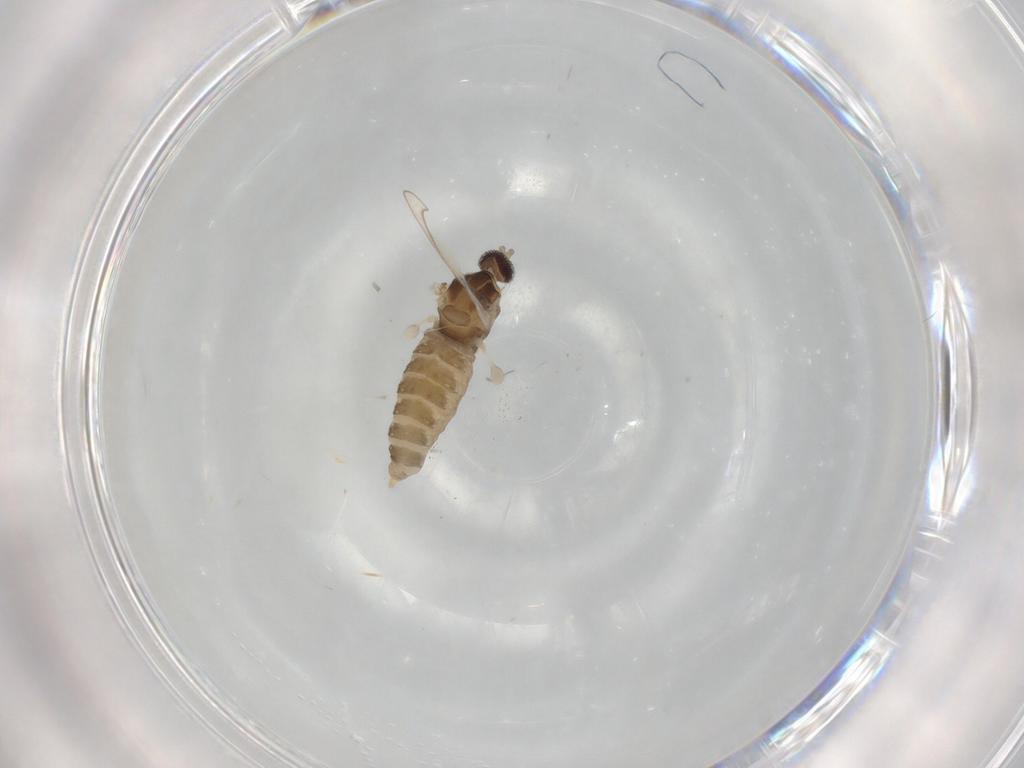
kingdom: Animalia
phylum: Arthropoda
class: Insecta
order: Diptera
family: Cecidomyiidae
